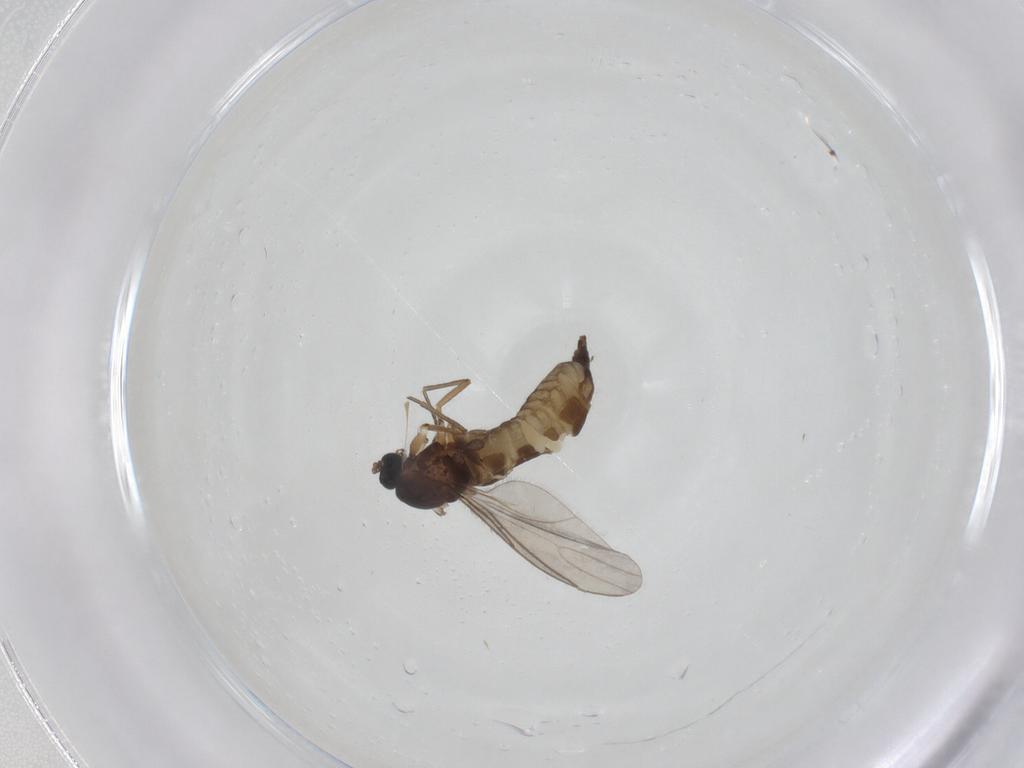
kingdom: Animalia
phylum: Arthropoda
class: Insecta
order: Diptera
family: Sciaridae
